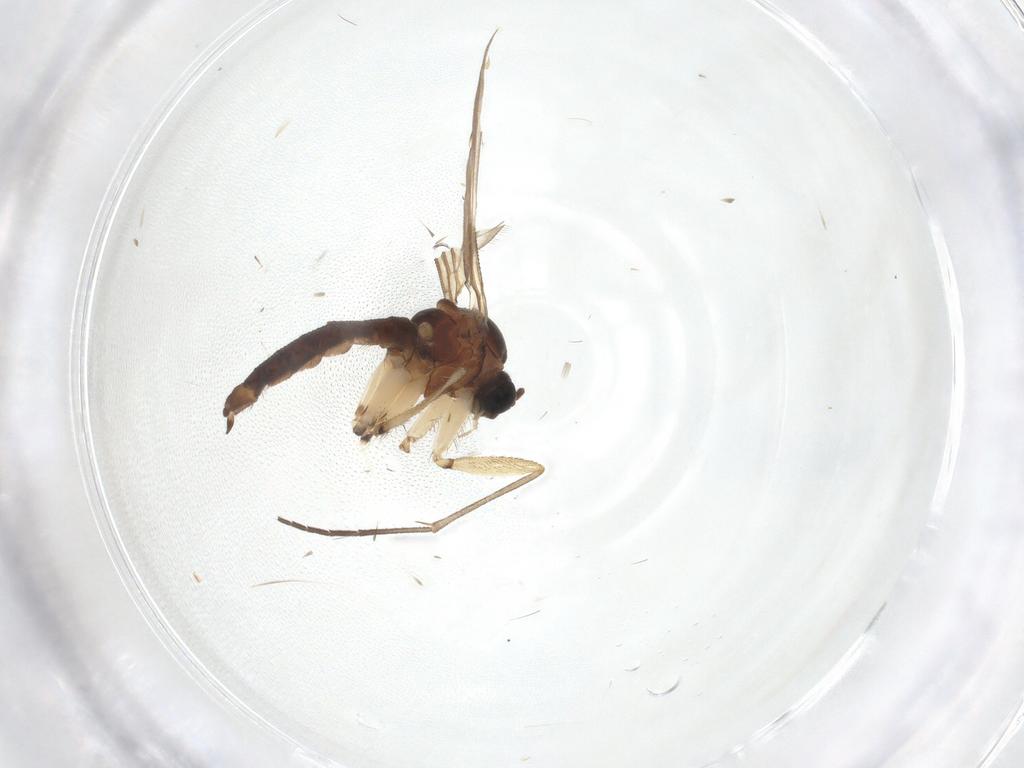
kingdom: Animalia
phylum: Arthropoda
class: Insecta
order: Diptera
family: Sciaridae
